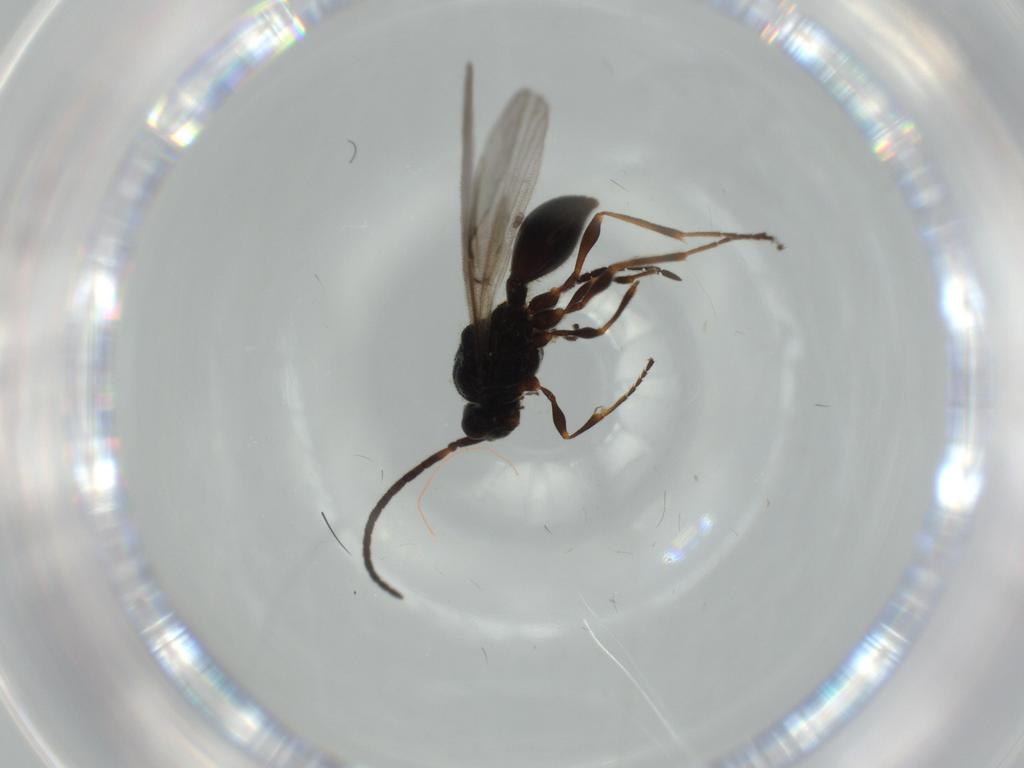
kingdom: Animalia
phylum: Arthropoda
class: Insecta
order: Hymenoptera
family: Diapriidae
